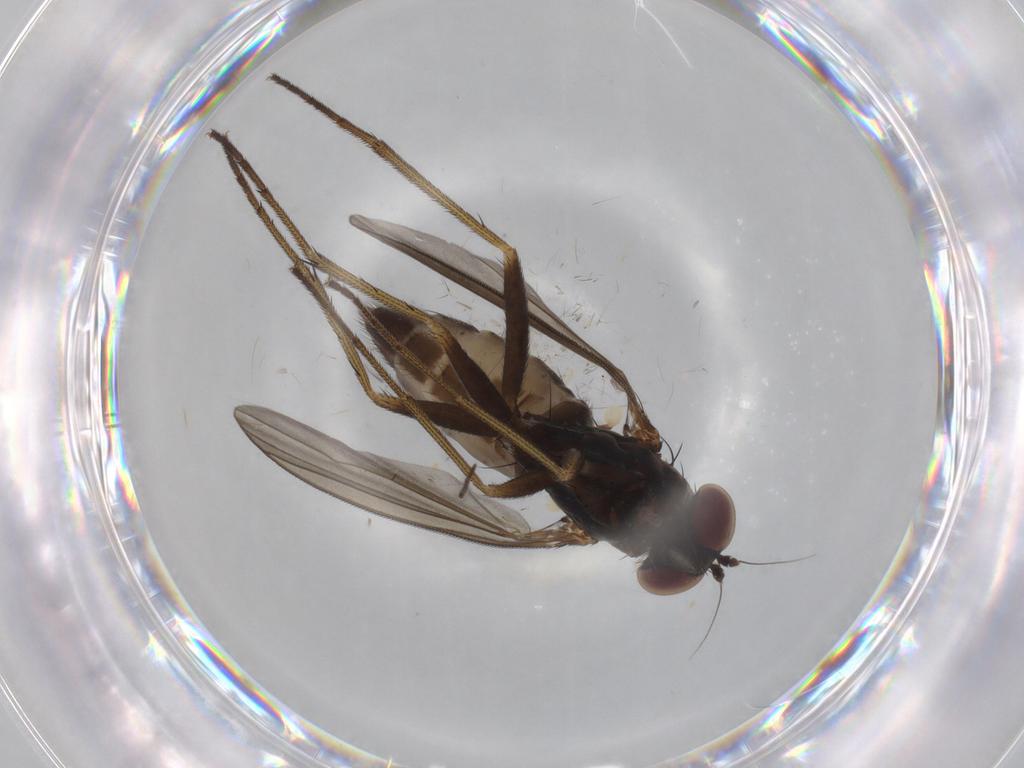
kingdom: Animalia
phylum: Arthropoda
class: Insecta
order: Diptera
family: Dolichopodidae
